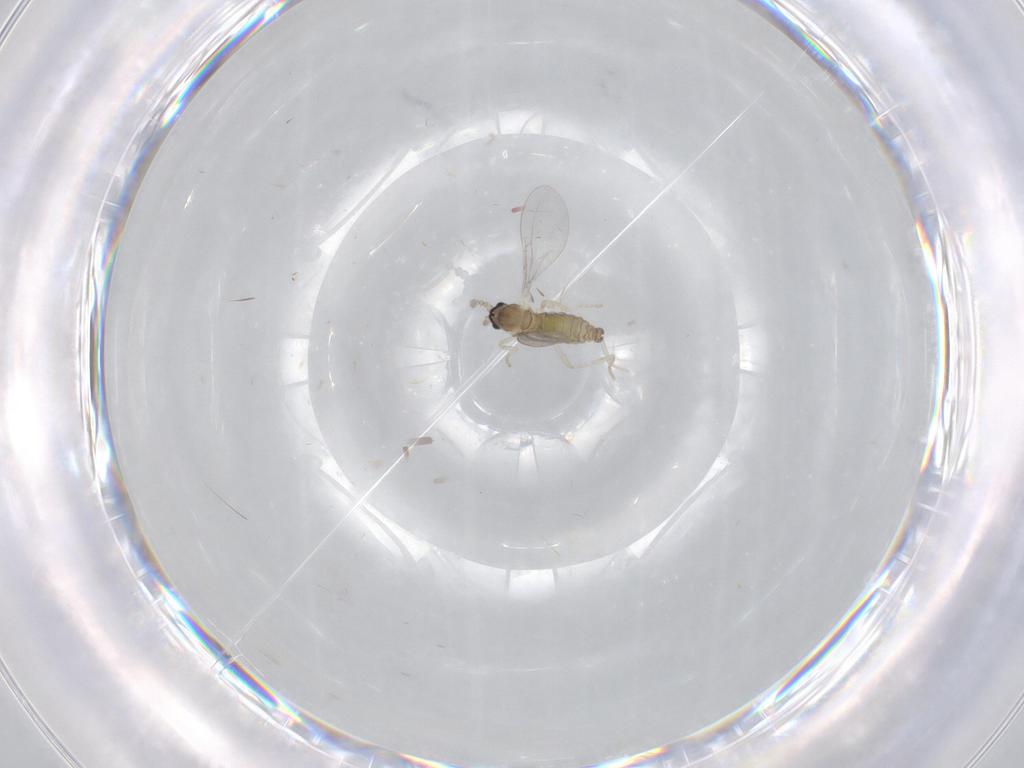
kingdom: Animalia
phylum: Arthropoda
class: Insecta
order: Diptera
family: Cecidomyiidae
